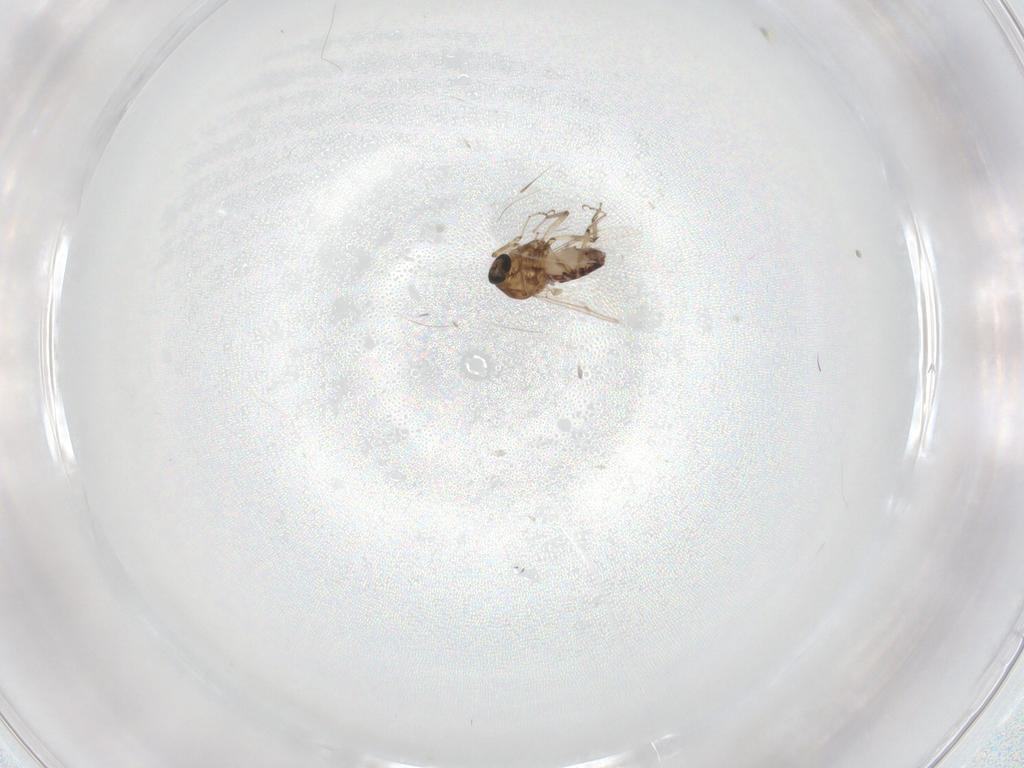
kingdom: Animalia
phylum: Arthropoda
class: Insecta
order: Diptera
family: Ceratopogonidae
